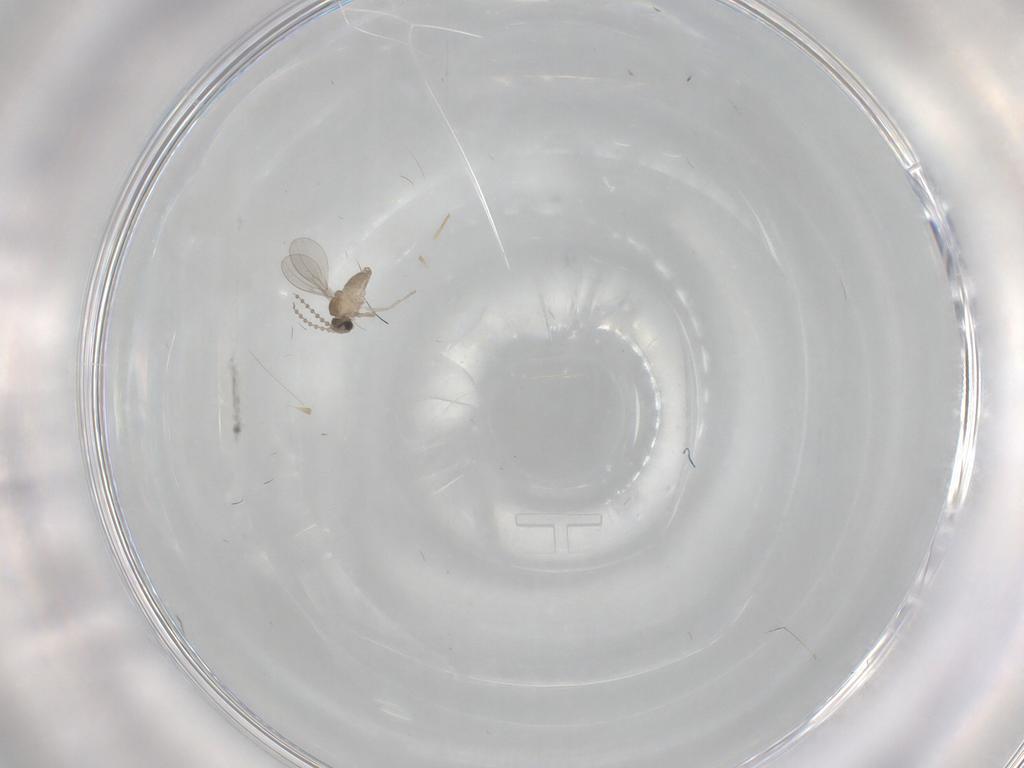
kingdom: Animalia
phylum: Arthropoda
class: Insecta
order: Diptera
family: Cecidomyiidae
